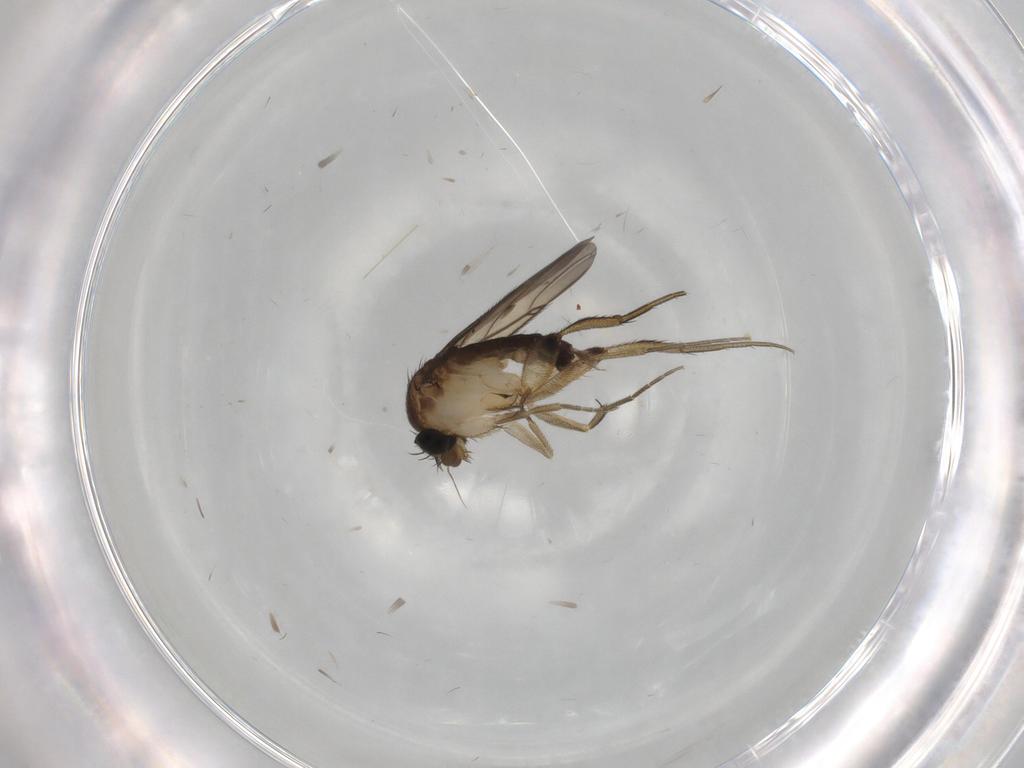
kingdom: Animalia
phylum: Arthropoda
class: Insecta
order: Diptera
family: Phoridae
